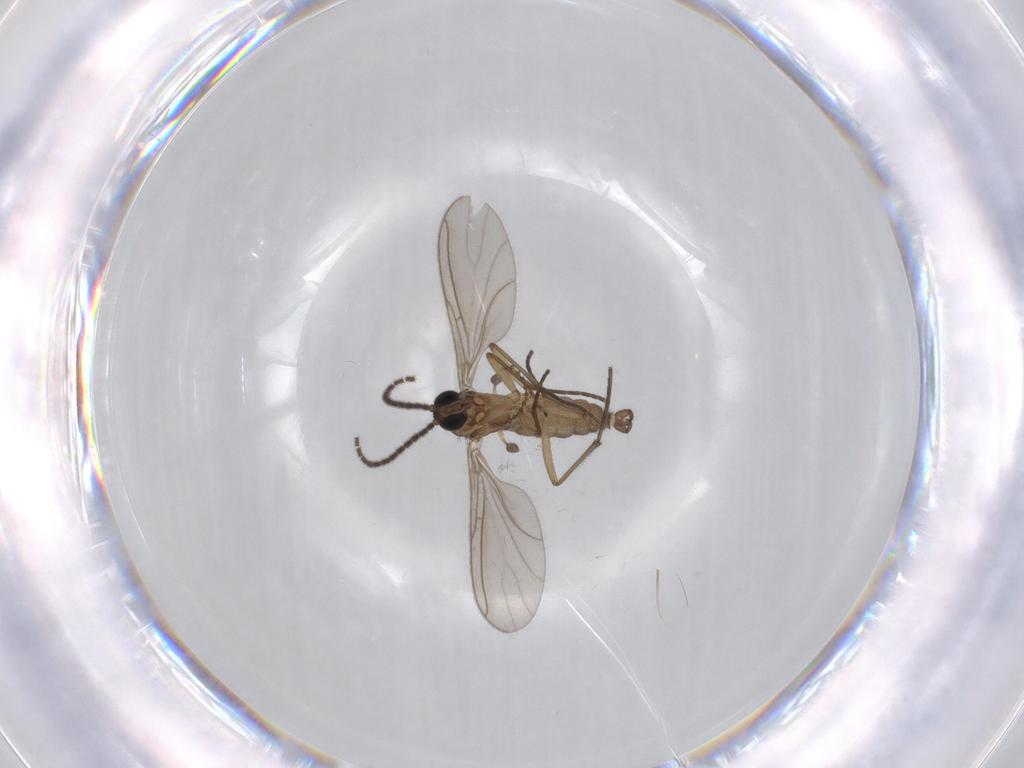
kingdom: Animalia
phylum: Arthropoda
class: Insecta
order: Diptera
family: Sciaridae
